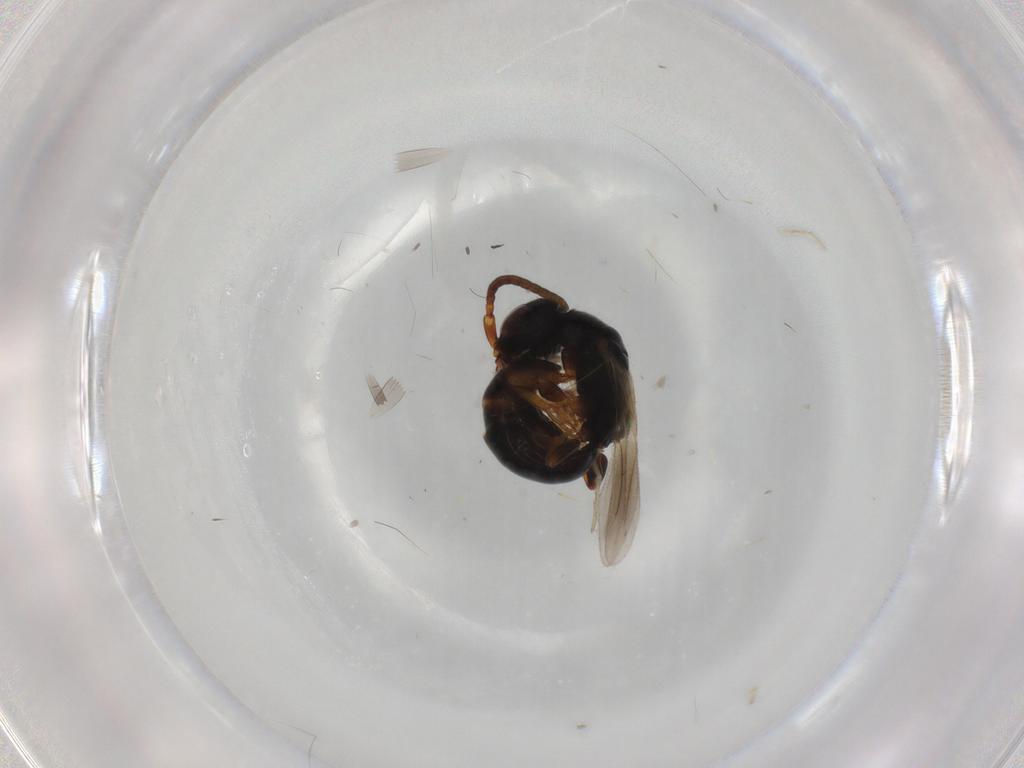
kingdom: Animalia
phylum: Arthropoda
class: Insecta
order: Hymenoptera
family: Bethylidae
